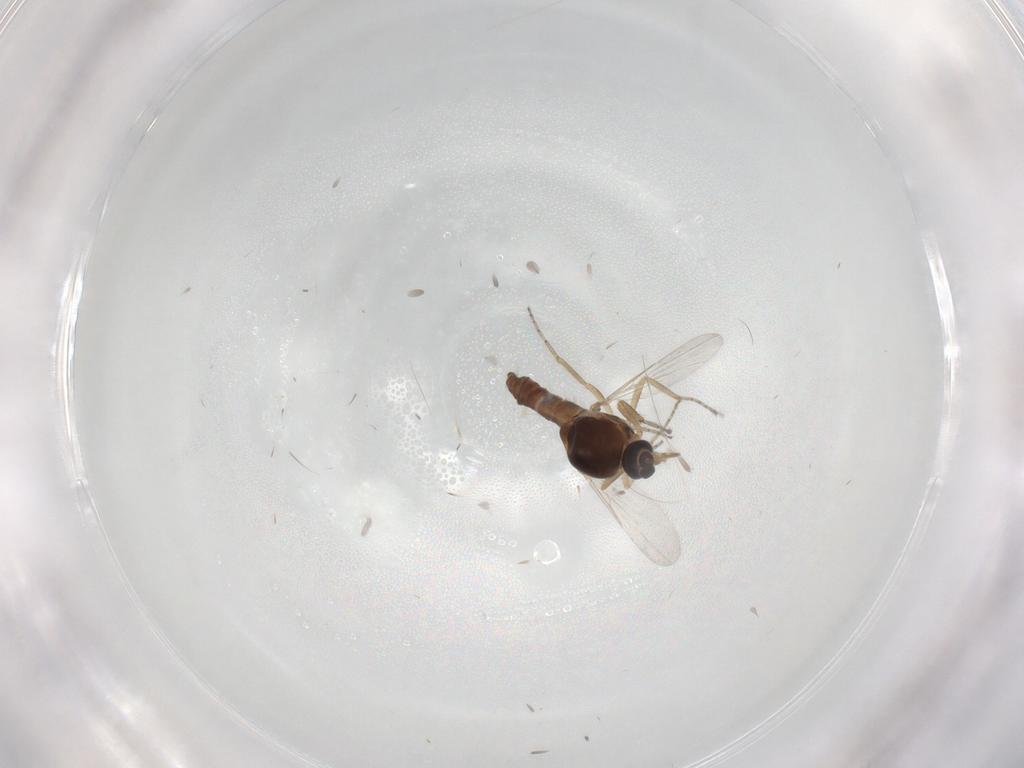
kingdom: Animalia
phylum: Arthropoda
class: Insecta
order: Diptera
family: Ceratopogonidae
